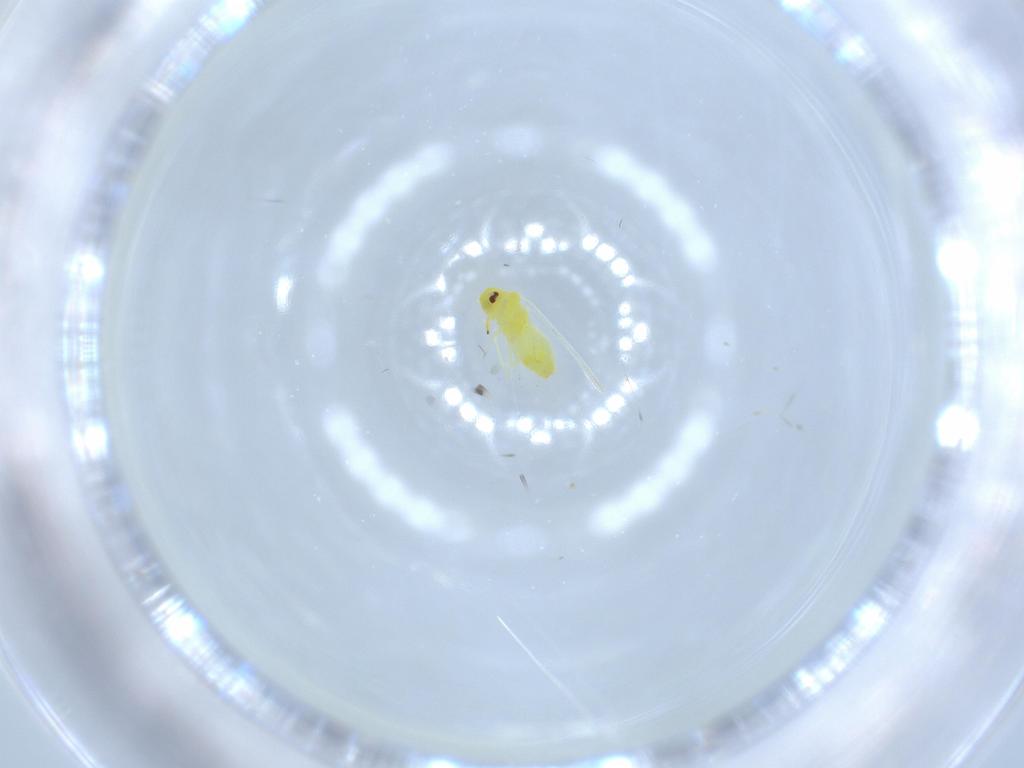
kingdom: Animalia
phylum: Arthropoda
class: Insecta
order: Hemiptera
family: Aleyrodidae
